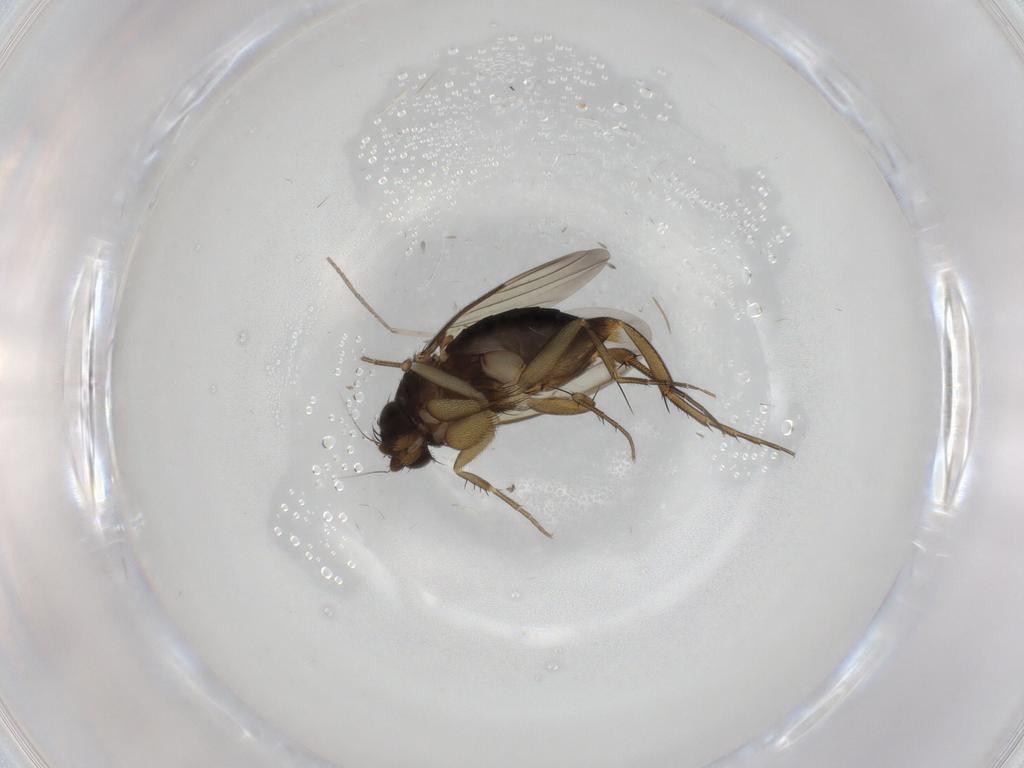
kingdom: Animalia
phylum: Arthropoda
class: Insecta
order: Diptera
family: Phoridae
